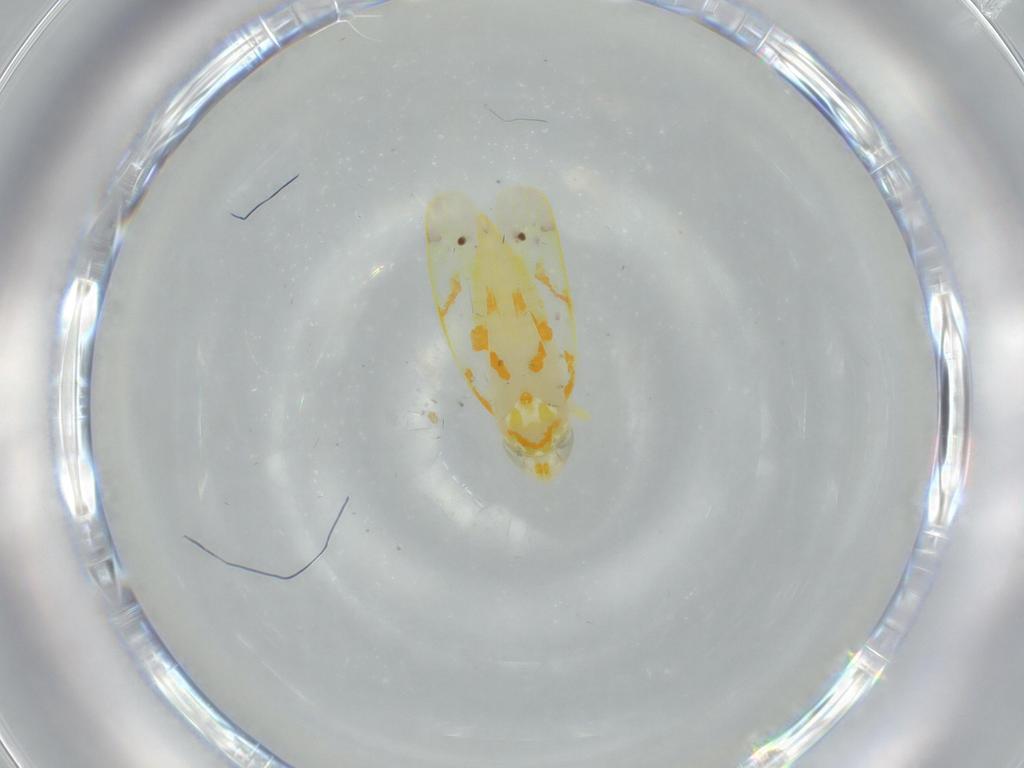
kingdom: Animalia
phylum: Arthropoda
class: Insecta
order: Hemiptera
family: Cicadellidae
